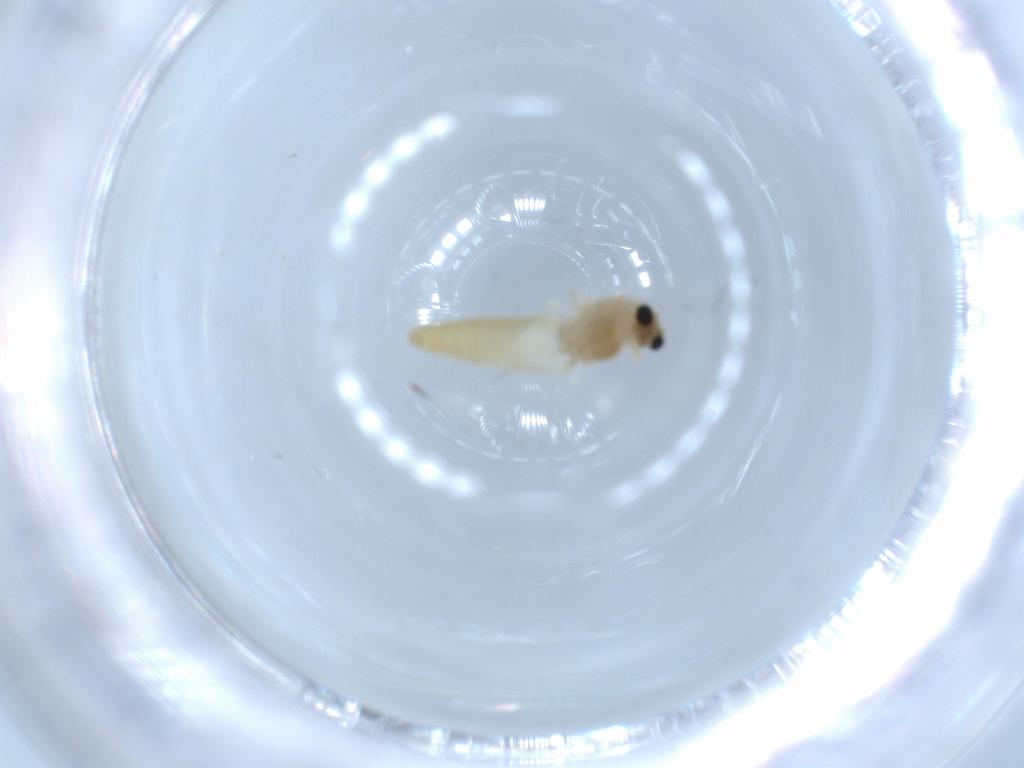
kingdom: Animalia
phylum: Arthropoda
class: Insecta
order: Diptera
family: Chironomidae
